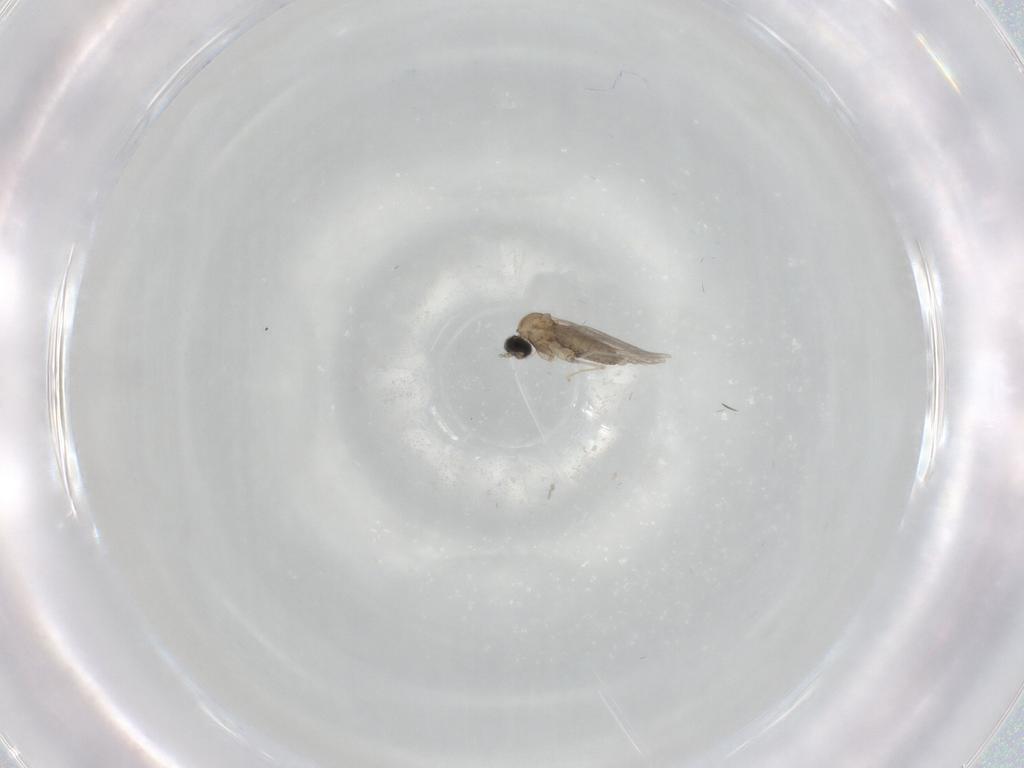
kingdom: Animalia
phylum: Arthropoda
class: Insecta
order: Diptera
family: Cecidomyiidae
